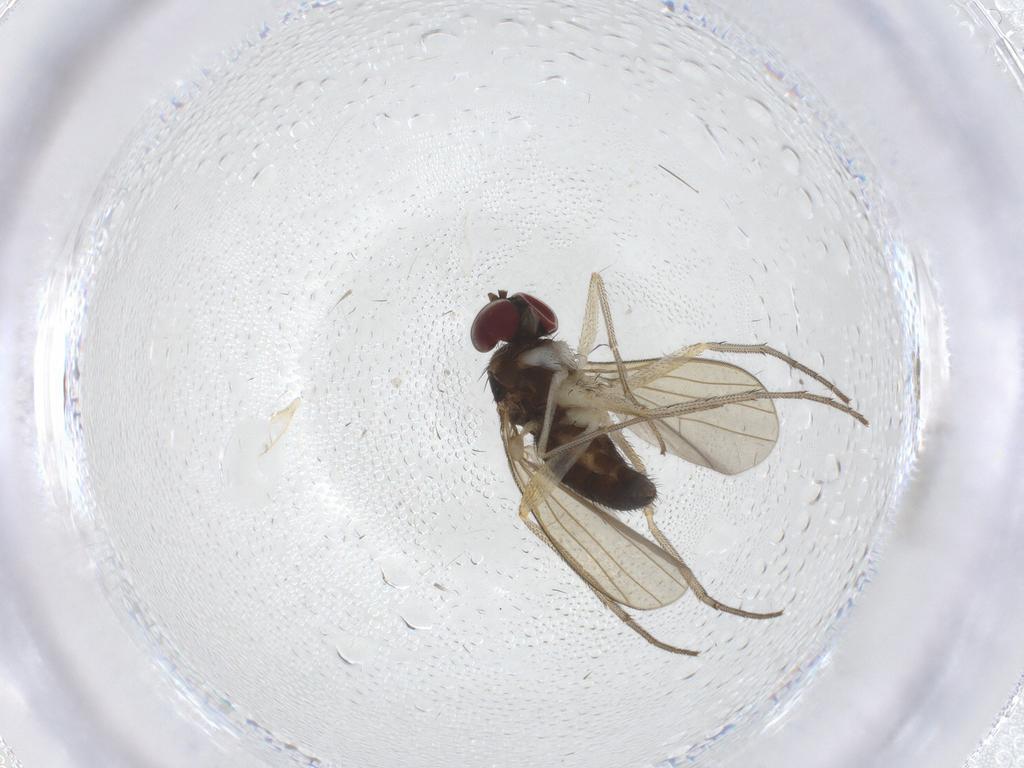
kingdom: Animalia
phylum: Arthropoda
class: Insecta
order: Diptera
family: Dolichopodidae
